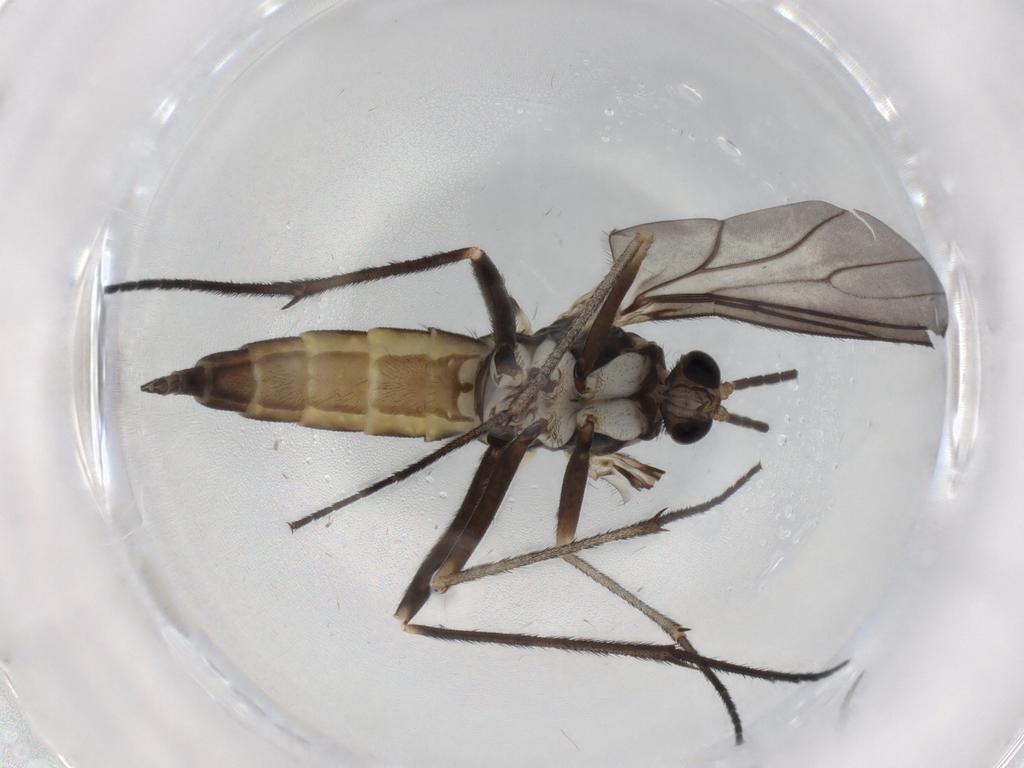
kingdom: Animalia
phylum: Arthropoda
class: Insecta
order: Diptera
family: Sciaridae
